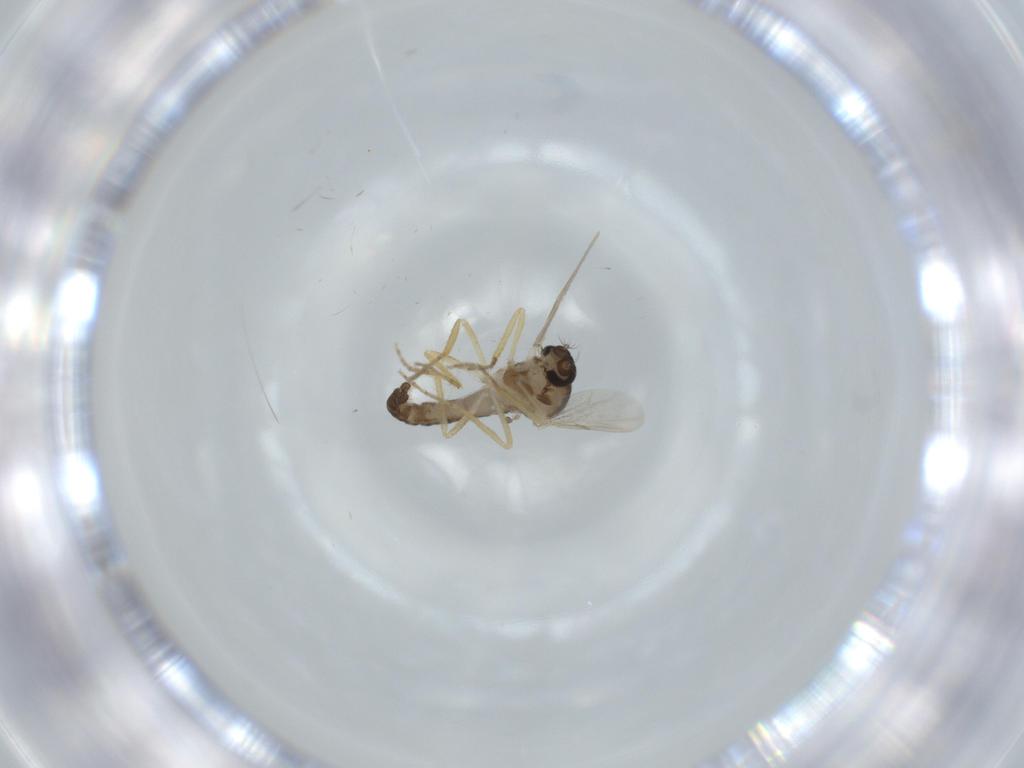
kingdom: Animalia
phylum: Arthropoda
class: Insecta
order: Diptera
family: Ceratopogonidae
